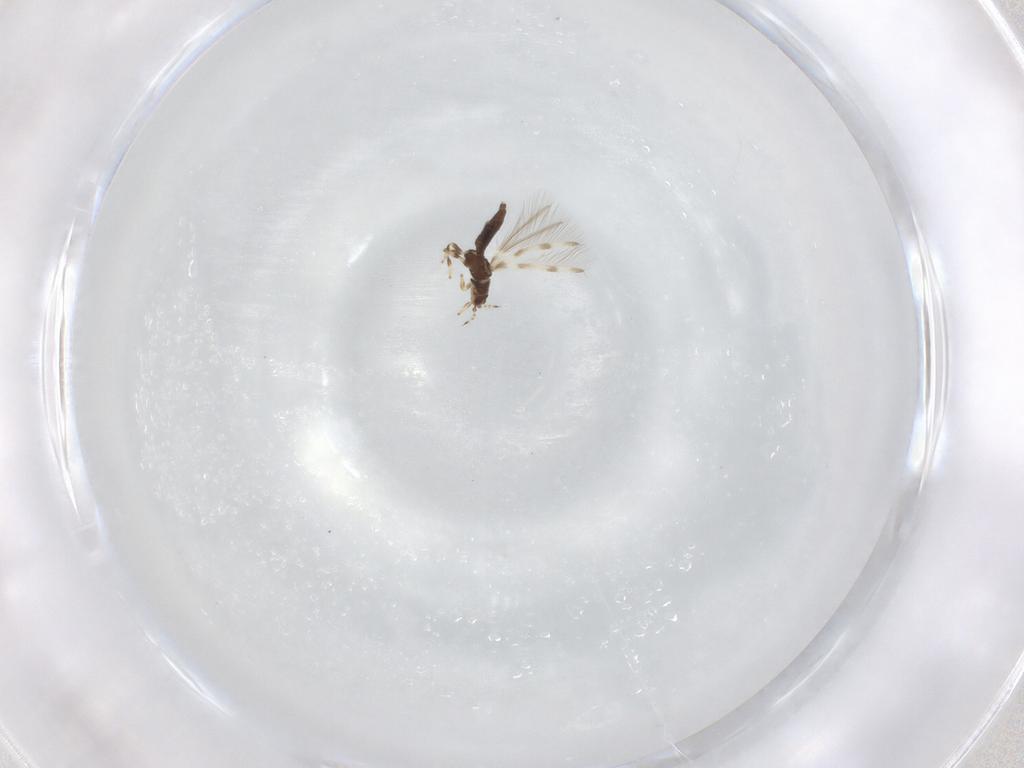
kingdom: Animalia
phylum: Arthropoda
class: Insecta
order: Thysanoptera
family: Thripidae
